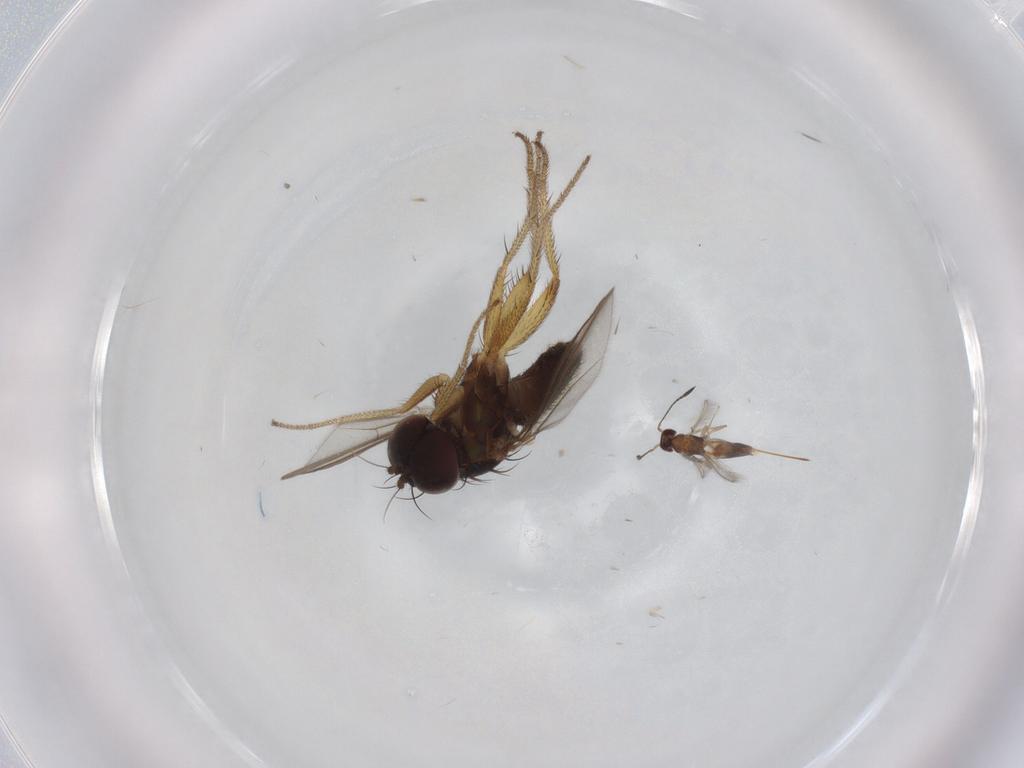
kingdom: Animalia
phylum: Arthropoda
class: Insecta
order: Diptera
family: Dolichopodidae
